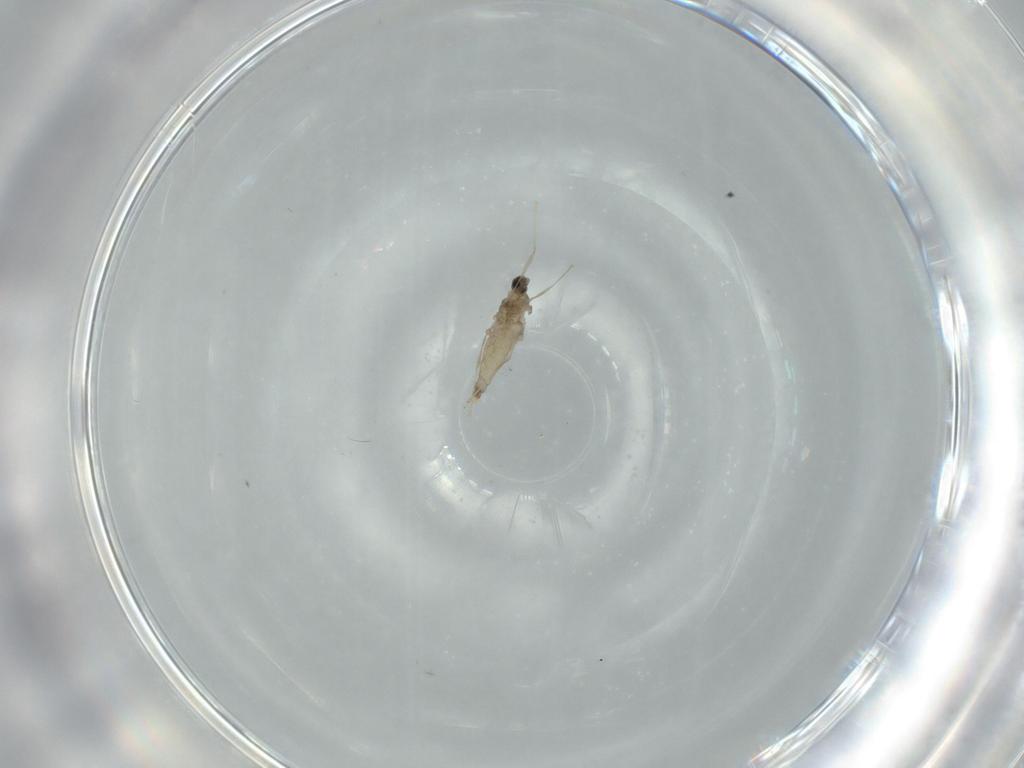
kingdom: Animalia
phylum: Arthropoda
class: Insecta
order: Diptera
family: Cecidomyiidae
